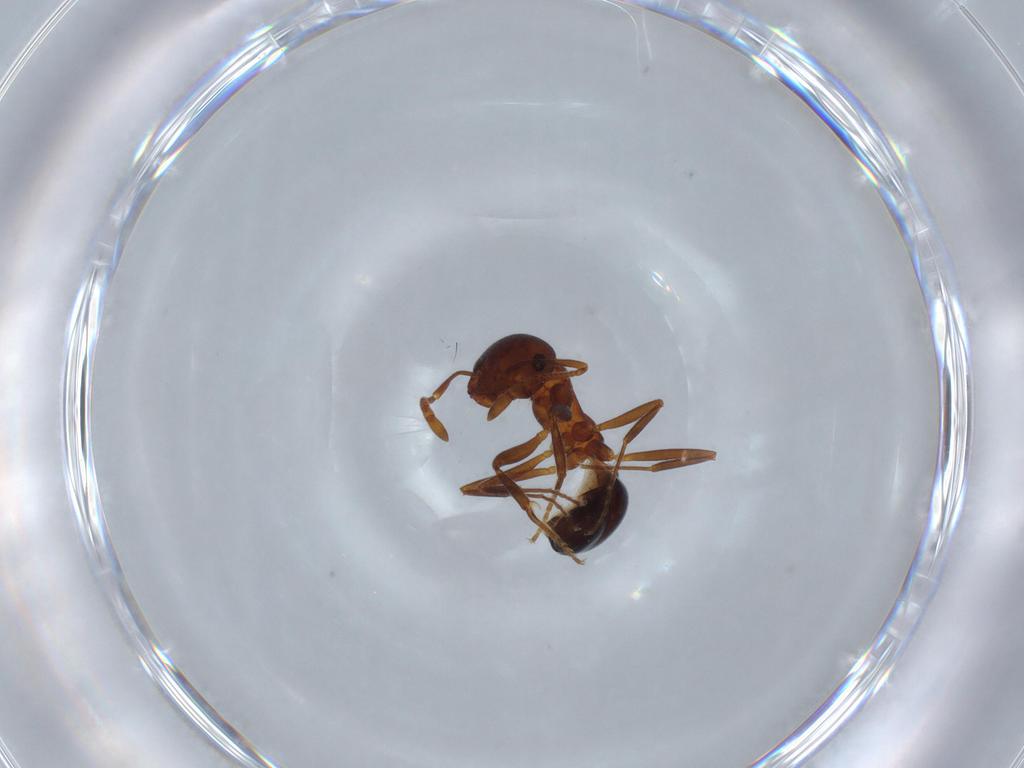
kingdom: Animalia
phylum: Arthropoda
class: Insecta
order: Hymenoptera
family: Formicidae
